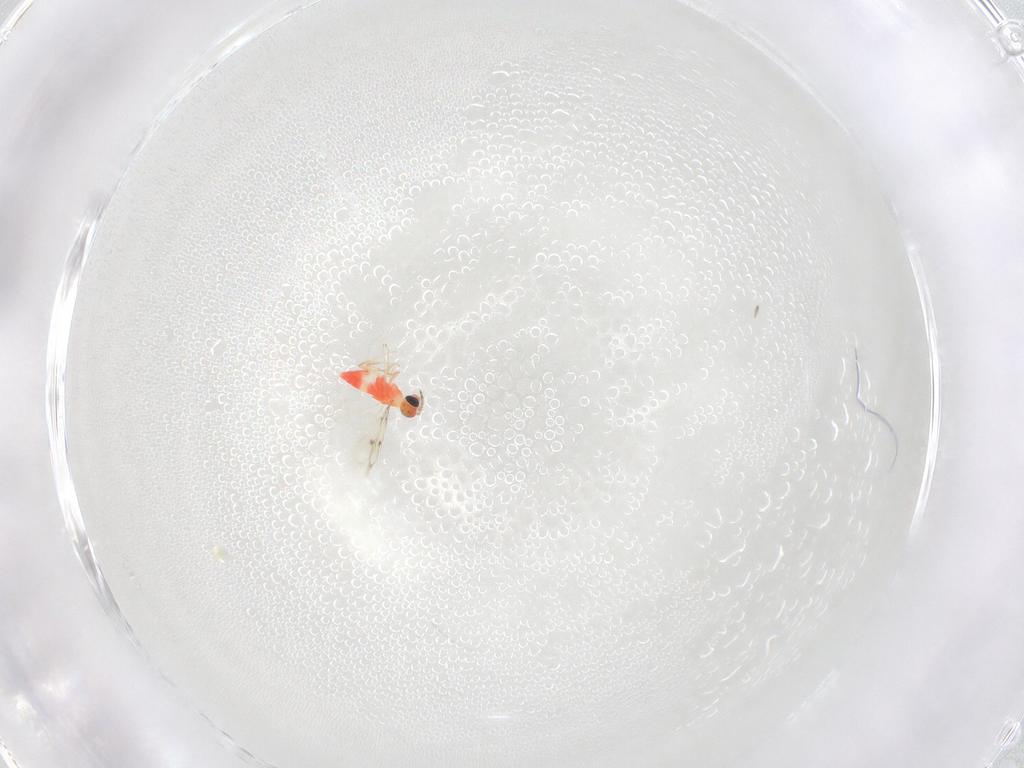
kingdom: Animalia
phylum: Arthropoda
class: Insecta
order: Hymenoptera
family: Trichogrammatidae
